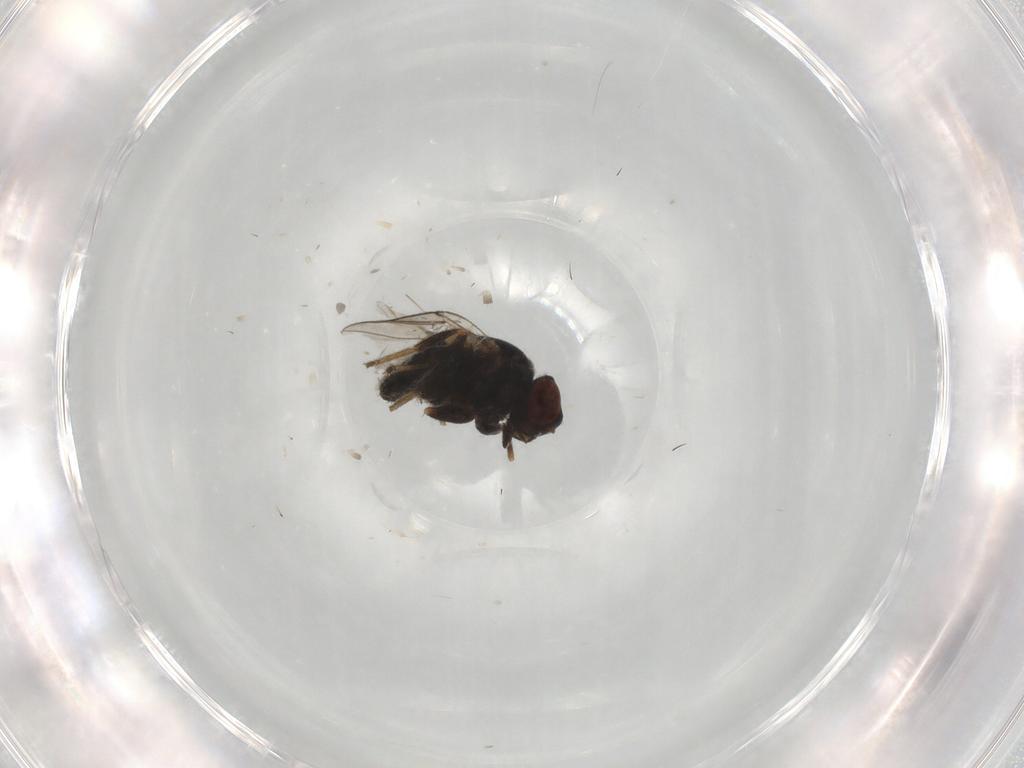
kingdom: Animalia
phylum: Arthropoda
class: Insecta
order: Diptera
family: Chloropidae
